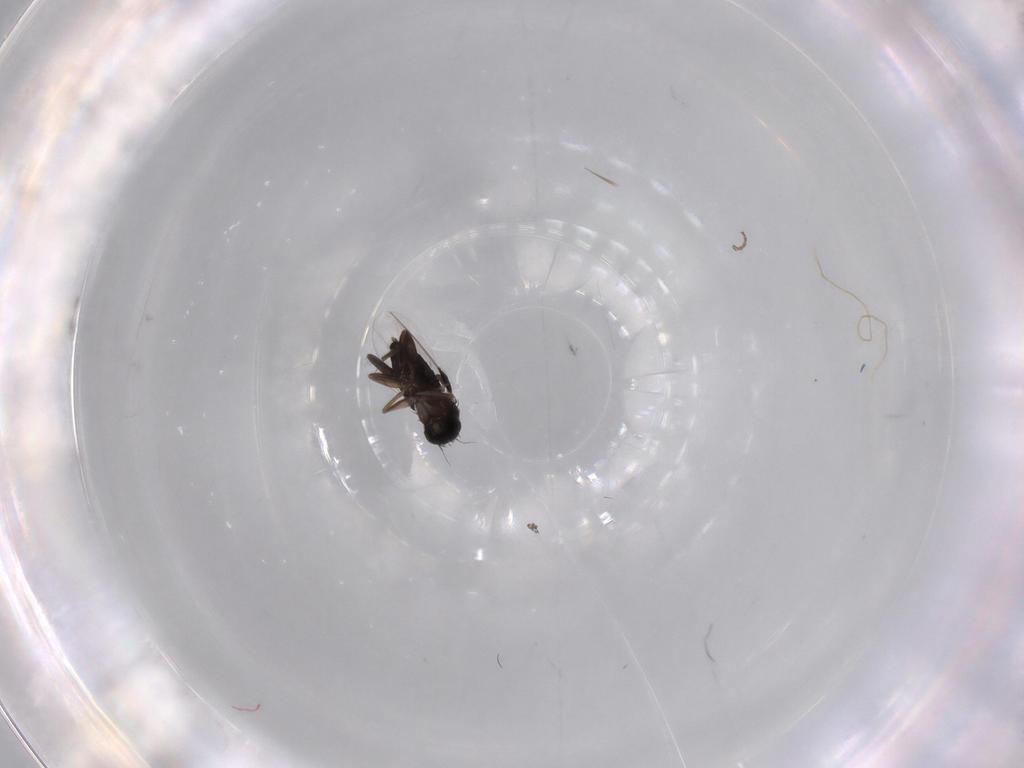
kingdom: Animalia
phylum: Arthropoda
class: Insecta
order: Diptera
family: Phoridae
